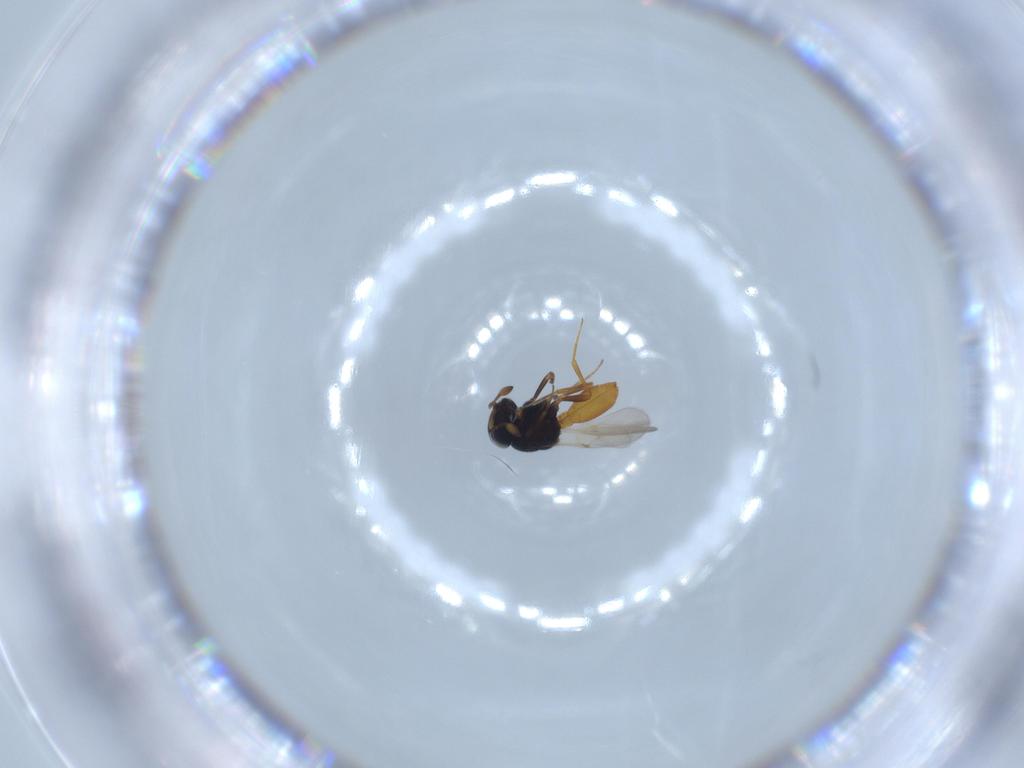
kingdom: Animalia
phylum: Arthropoda
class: Insecta
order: Hymenoptera
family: Scelionidae
